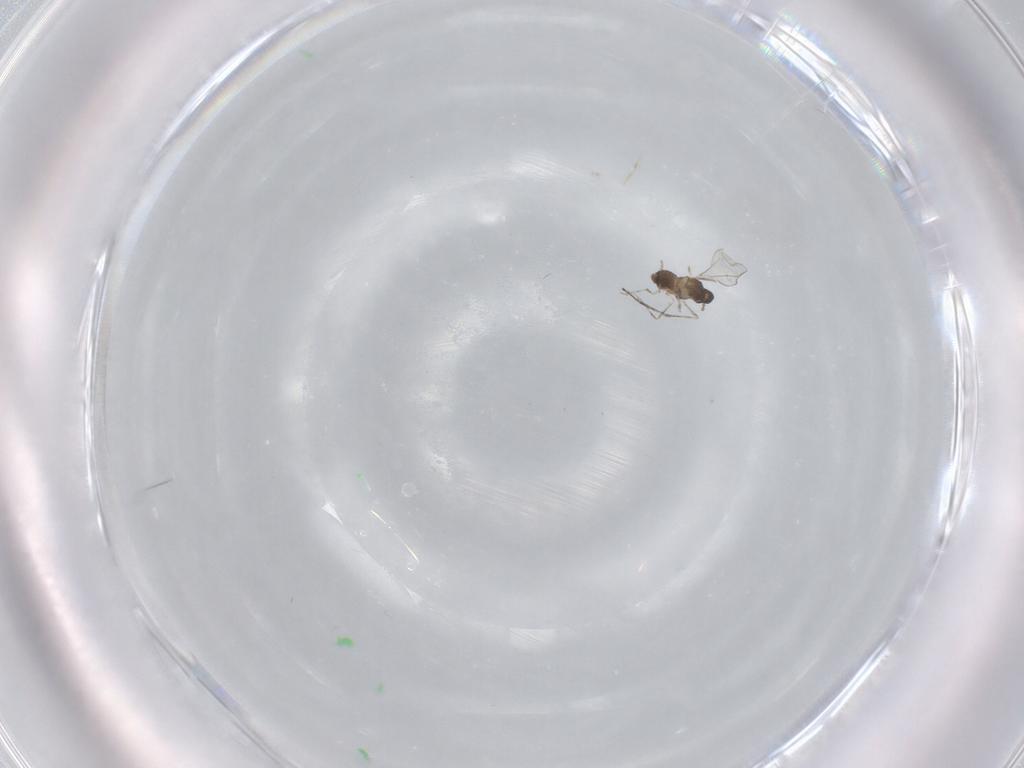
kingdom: Animalia
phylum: Arthropoda
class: Insecta
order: Diptera
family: Cecidomyiidae
